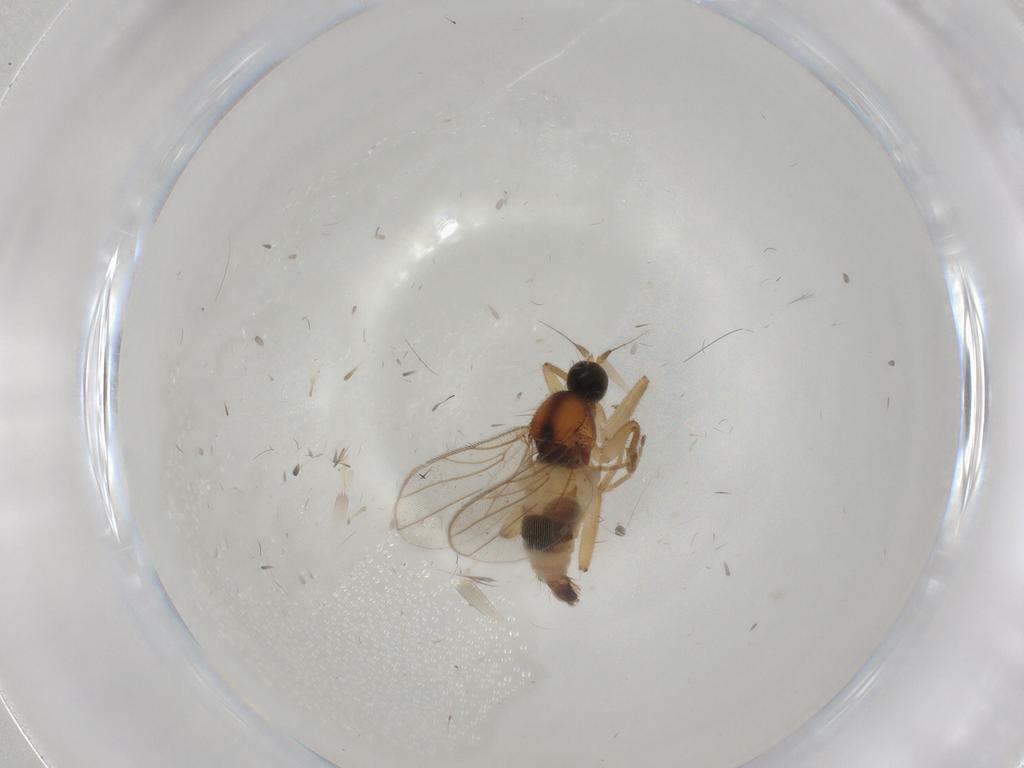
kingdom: Animalia
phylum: Arthropoda
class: Insecta
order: Diptera
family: Hybotidae
